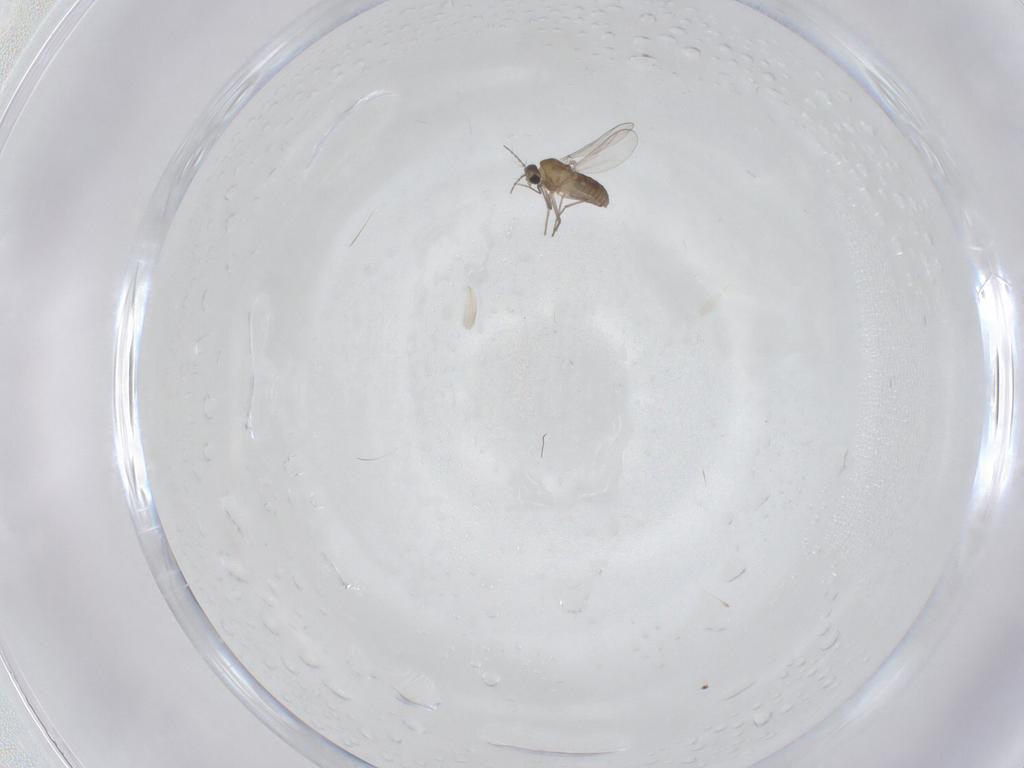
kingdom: Animalia
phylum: Arthropoda
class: Insecta
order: Diptera
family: Chironomidae
